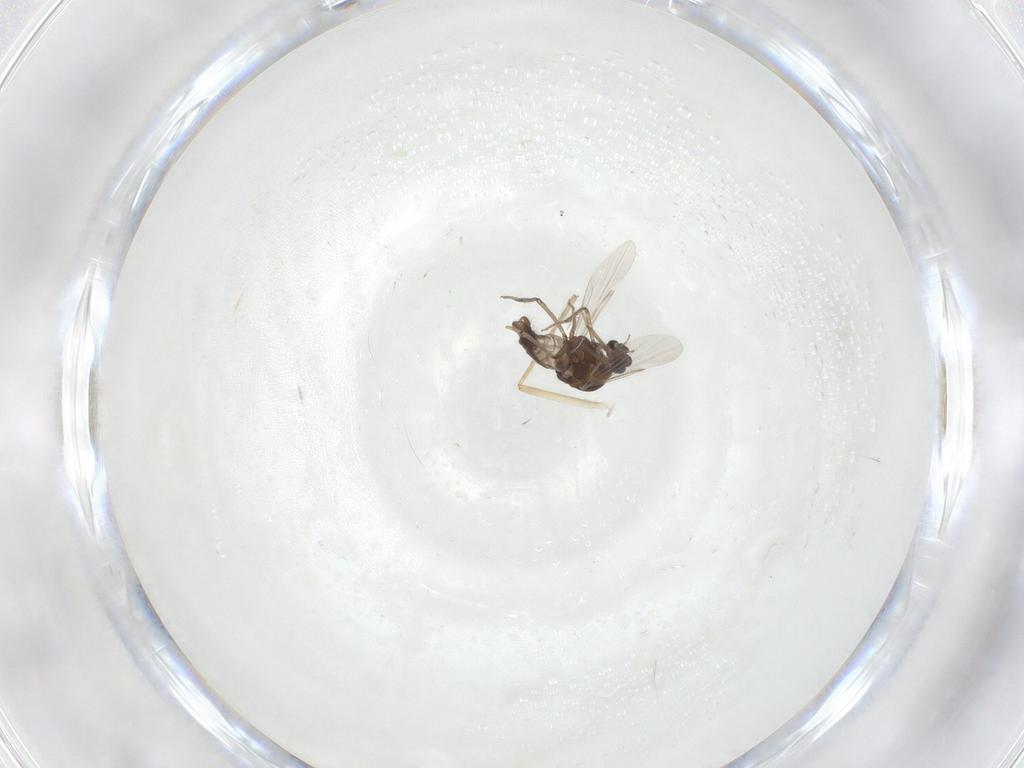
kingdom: Animalia
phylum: Arthropoda
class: Insecta
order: Diptera
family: Ceratopogonidae
